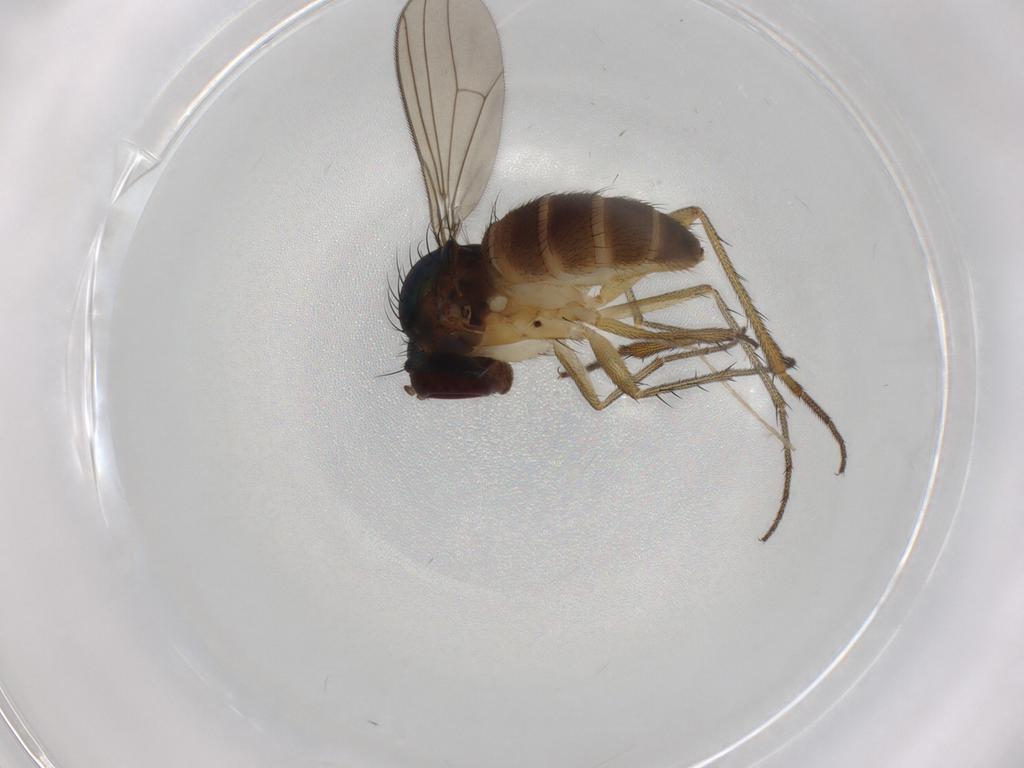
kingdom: Animalia
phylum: Arthropoda
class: Insecta
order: Diptera
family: Dolichopodidae
